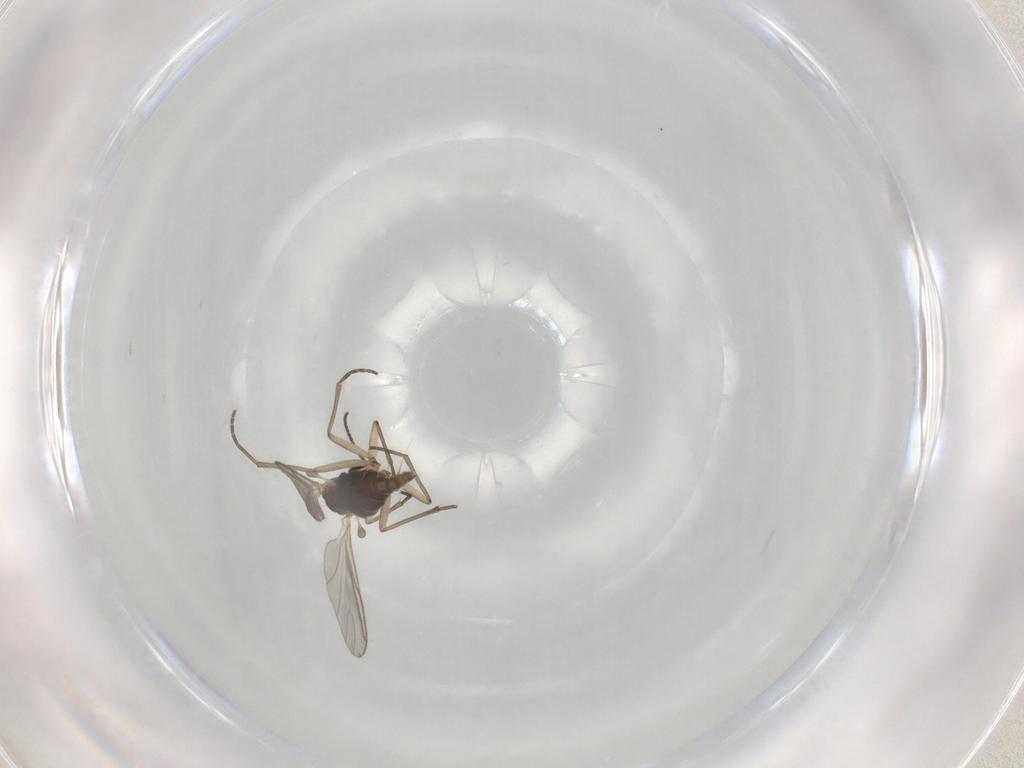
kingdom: Animalia
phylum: Arthropoda
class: Insecta
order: Diptera
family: Sciaridae
